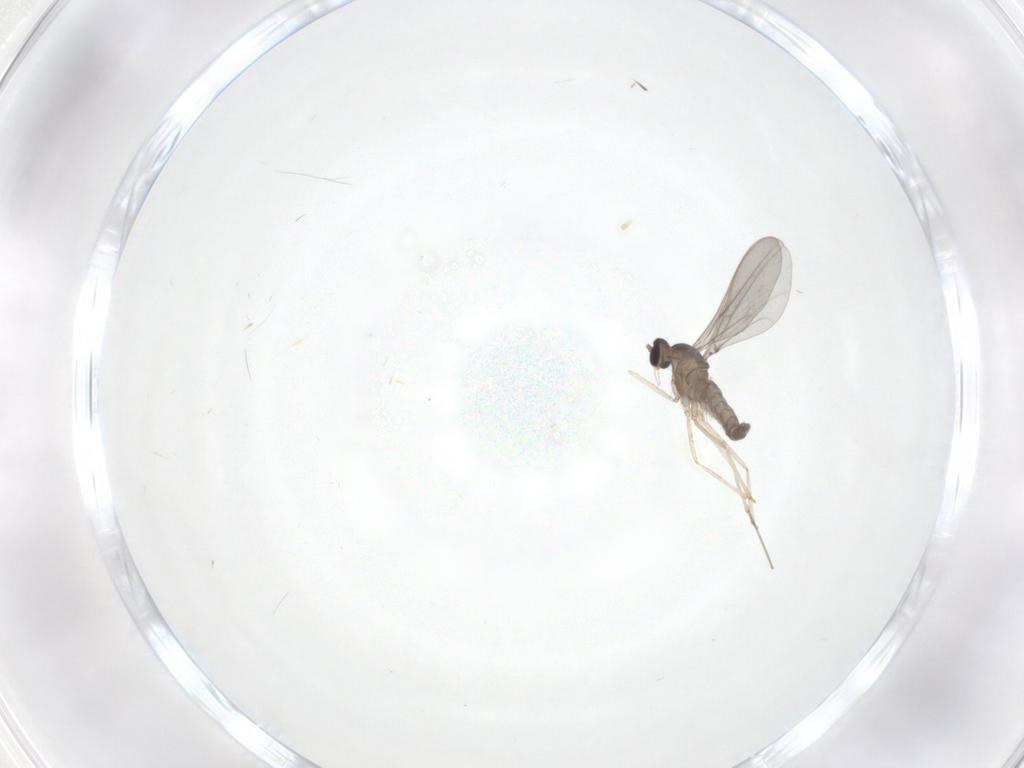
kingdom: Animalia
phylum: Arthropoda
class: Insecta
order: Diptera
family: Cecidomyiidae
